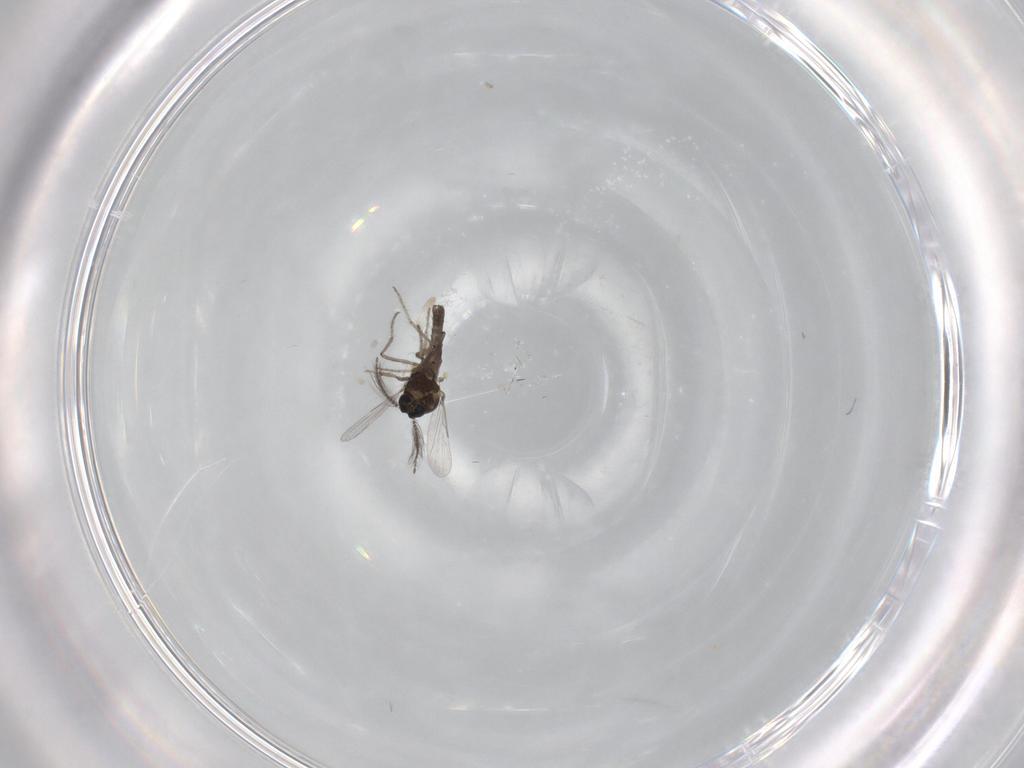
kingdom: Animalia
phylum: Arthropoda
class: Insecta
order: Diptera
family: Ceratopogonidae
